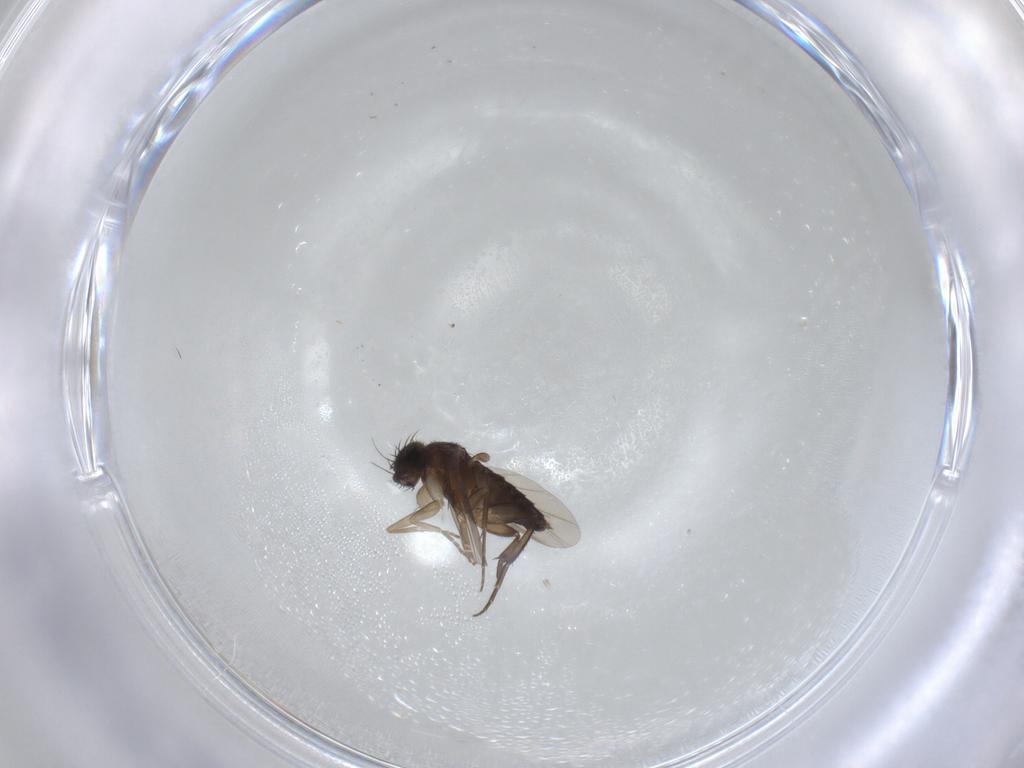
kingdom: Animalia
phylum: Arthropoda
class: Insecta
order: Diptera
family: Phoridae
